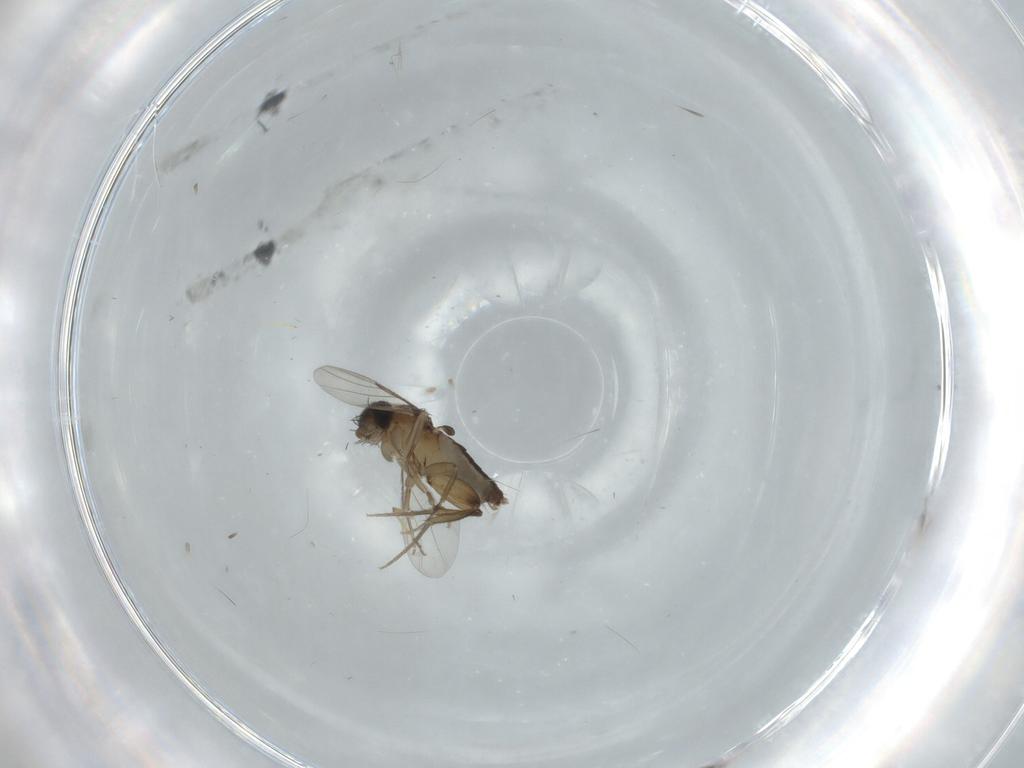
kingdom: Animalia
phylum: Arthropoda
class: Insecta
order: Diptera
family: Phoridae
